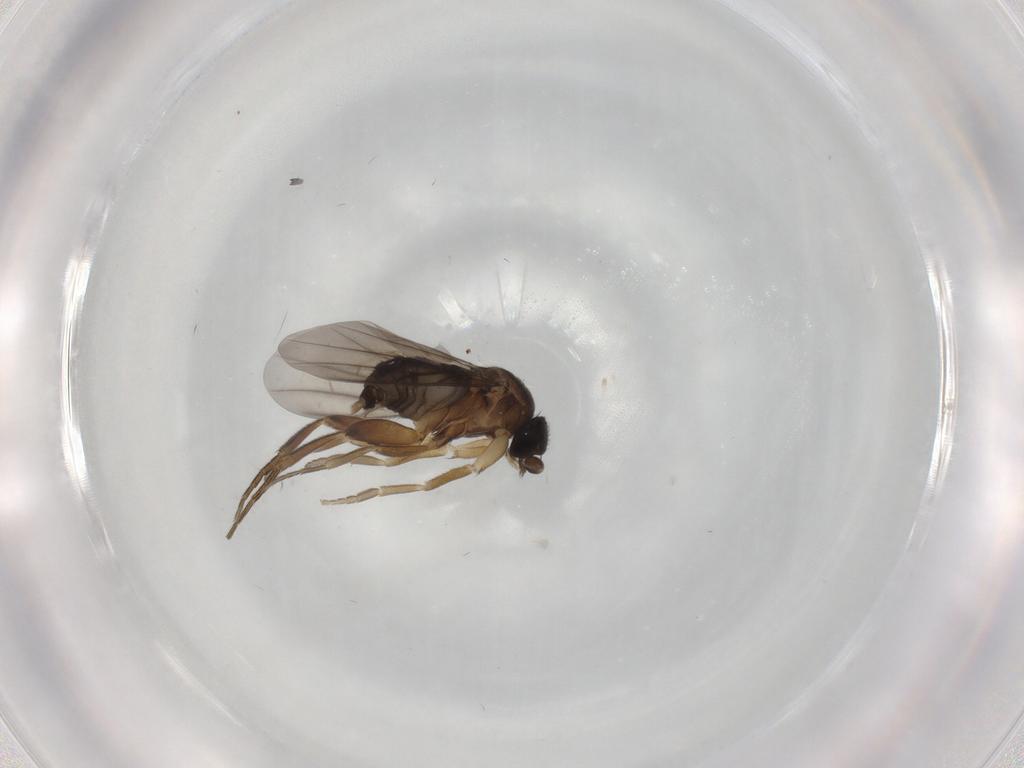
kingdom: Animalia
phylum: Arthropoda
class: Insecta
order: Diptera
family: Phoridae
